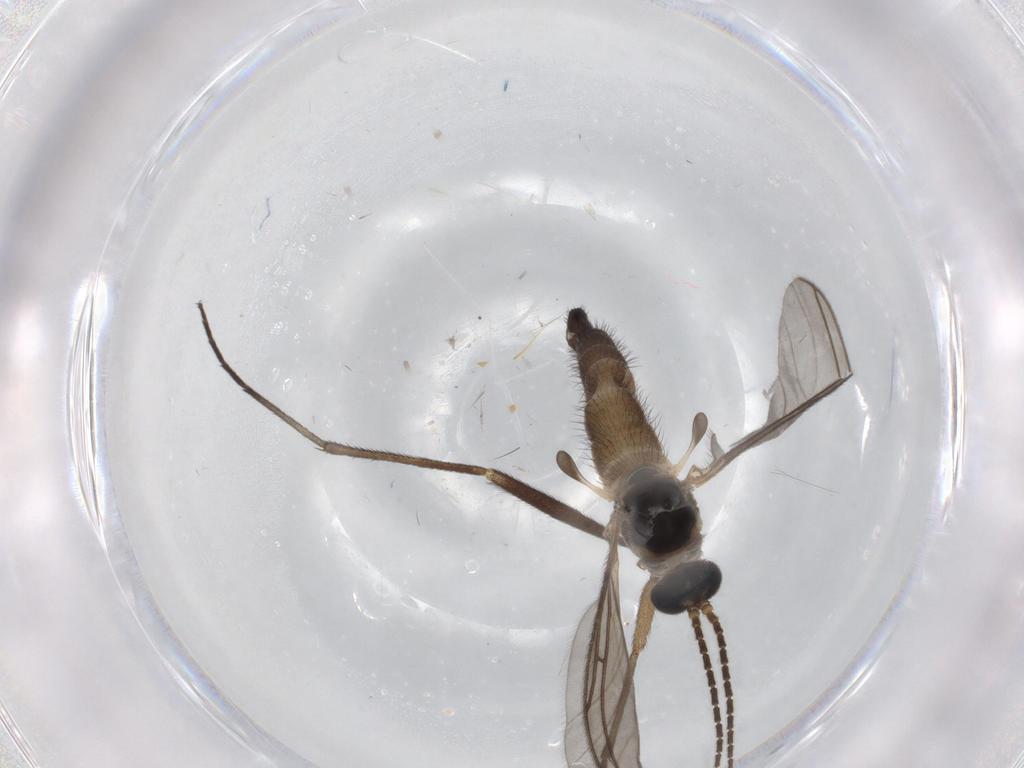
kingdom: Animalia
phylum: Arthropoda
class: Insecta
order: Diptera
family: Sciaridae
